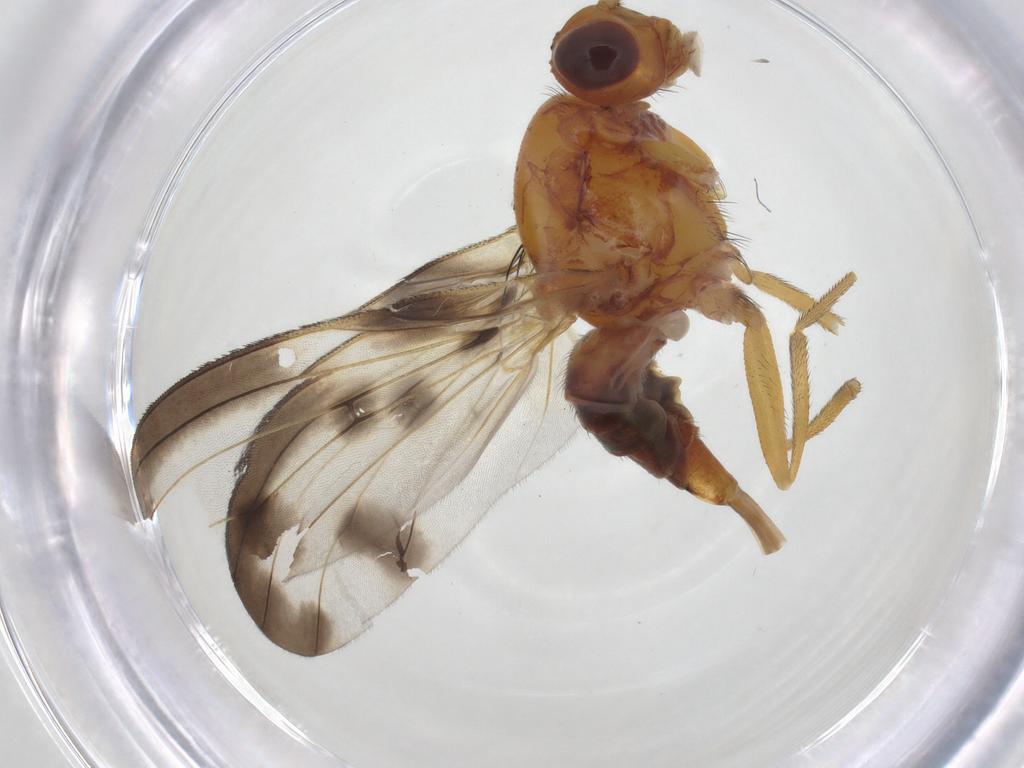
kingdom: Animalia
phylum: Arthropoda
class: Insecta
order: Diptera
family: Pallopteridae
